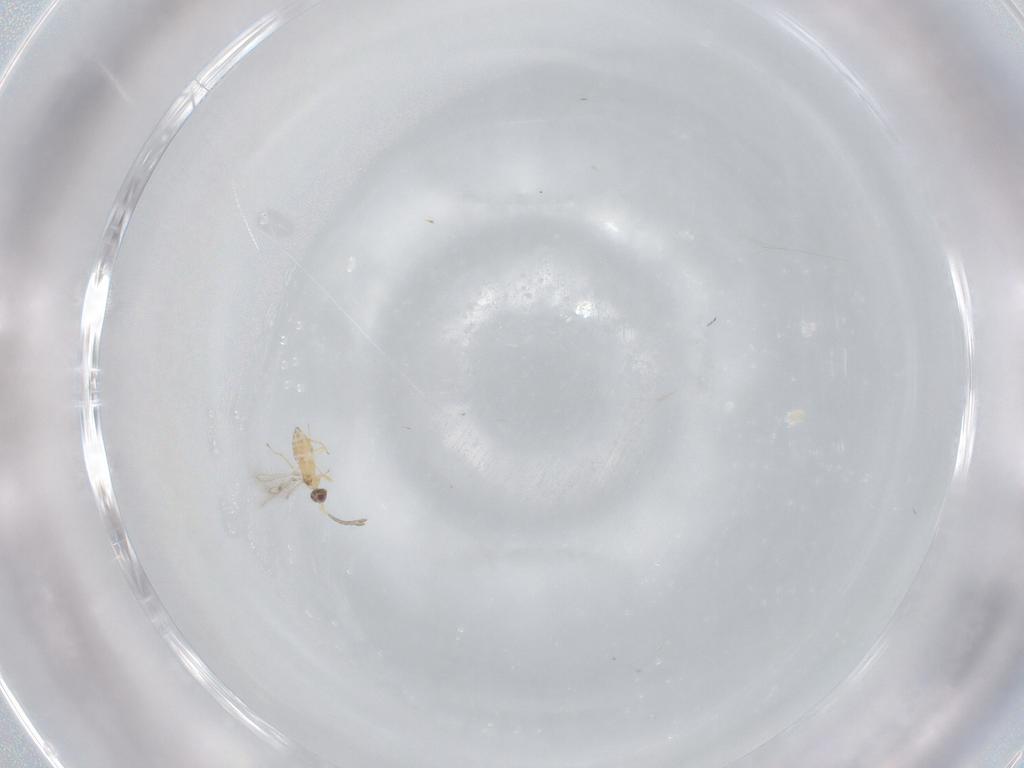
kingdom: Animalia
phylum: Arthropoda
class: Insecta
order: Hymenoptera
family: Mymaridae
